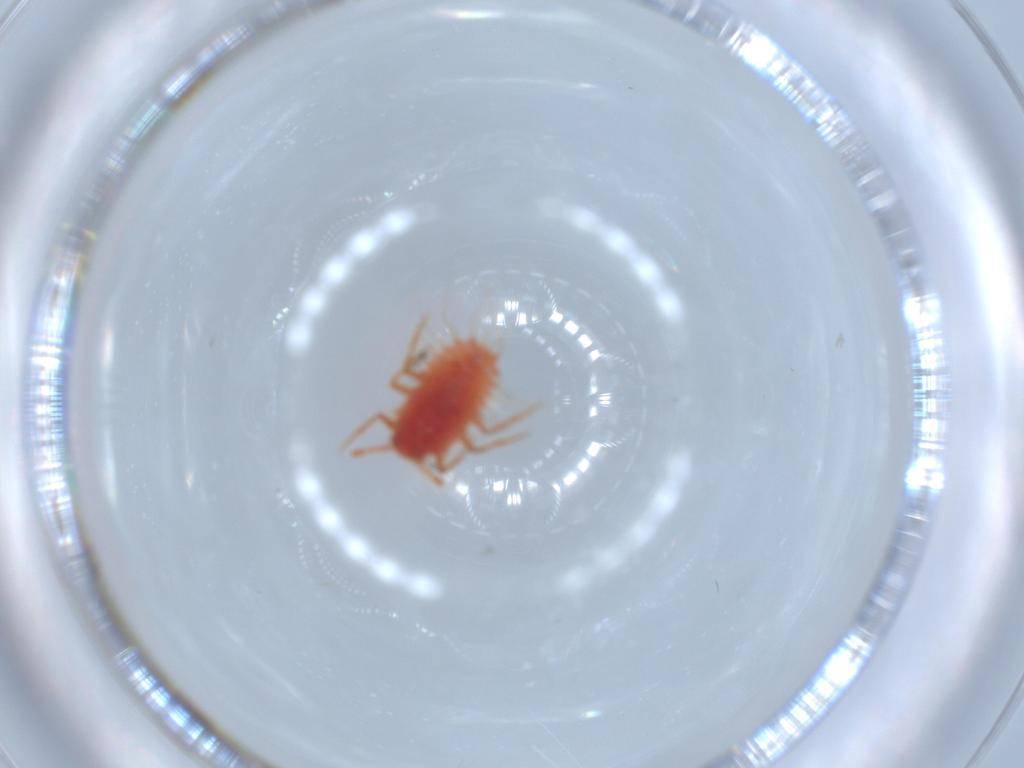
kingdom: Animalia
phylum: Arthropoda
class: Insecta
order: Hemiptera
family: Monophlebidae
